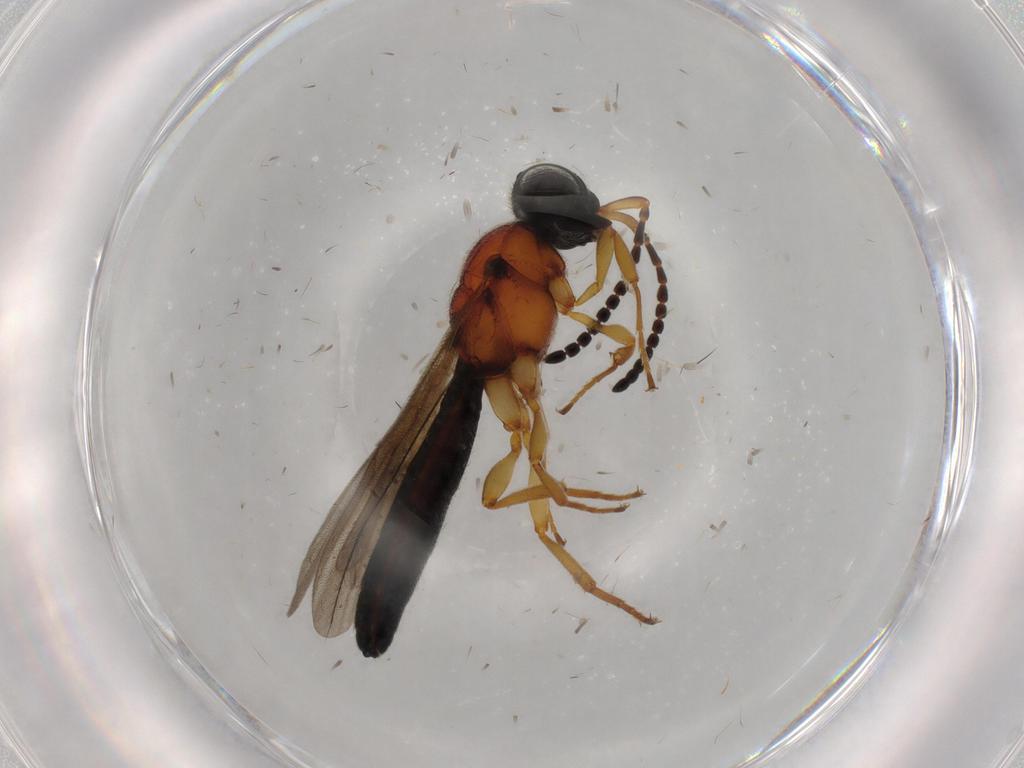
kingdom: Animalia
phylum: Arthropoda
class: Insecta
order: Hymenoptera
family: Scelionidae
